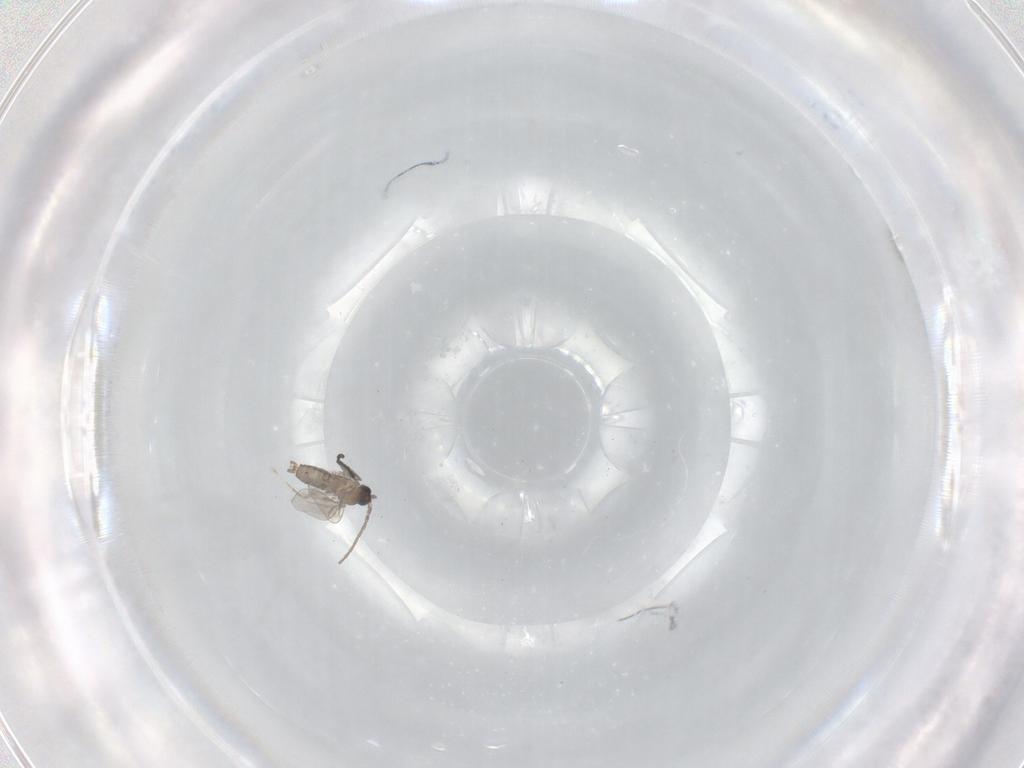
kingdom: Animalia
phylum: Arthropoda
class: Insecta
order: Diptera
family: Cecidomyiidae
